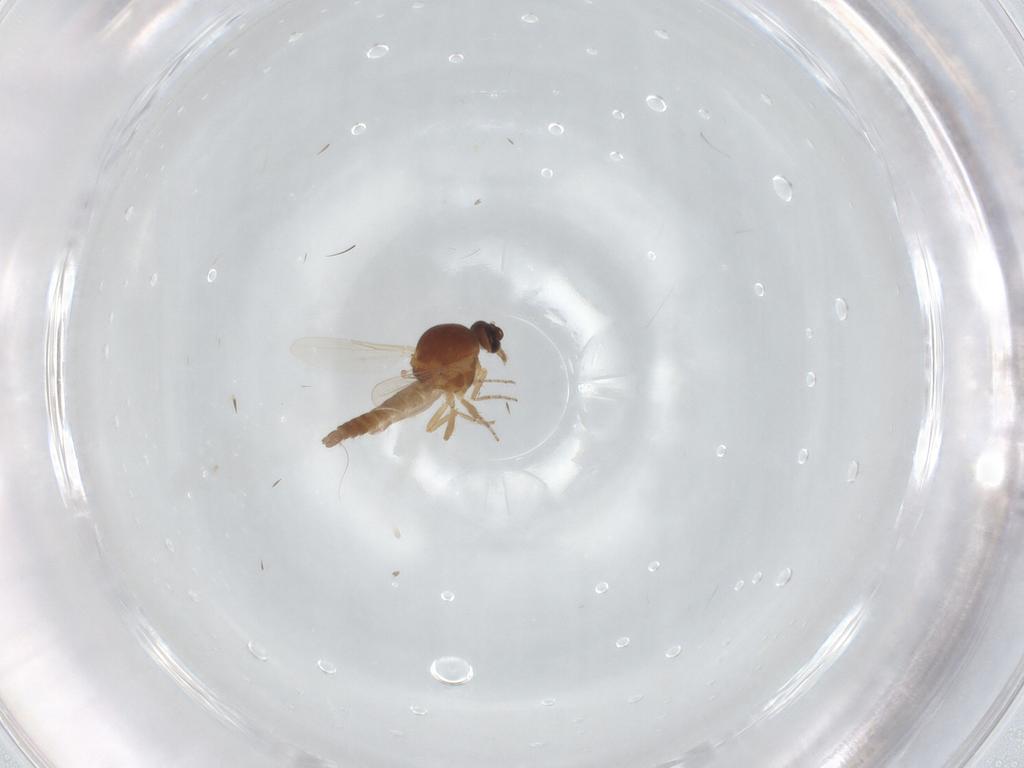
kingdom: Animalia
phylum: Arthropoda
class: Insecta
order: Diptera
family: Ceratopogonidae
